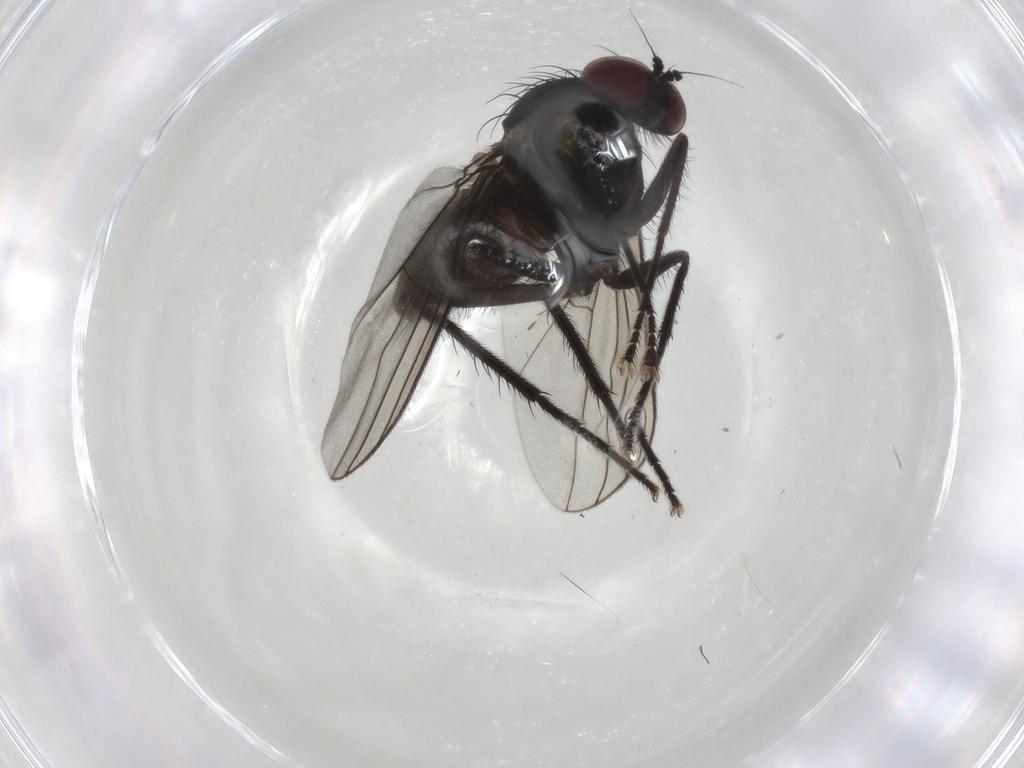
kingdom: Animalia
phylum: Arthropoda
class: Insecta
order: Diptera
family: Dolichopodidae
